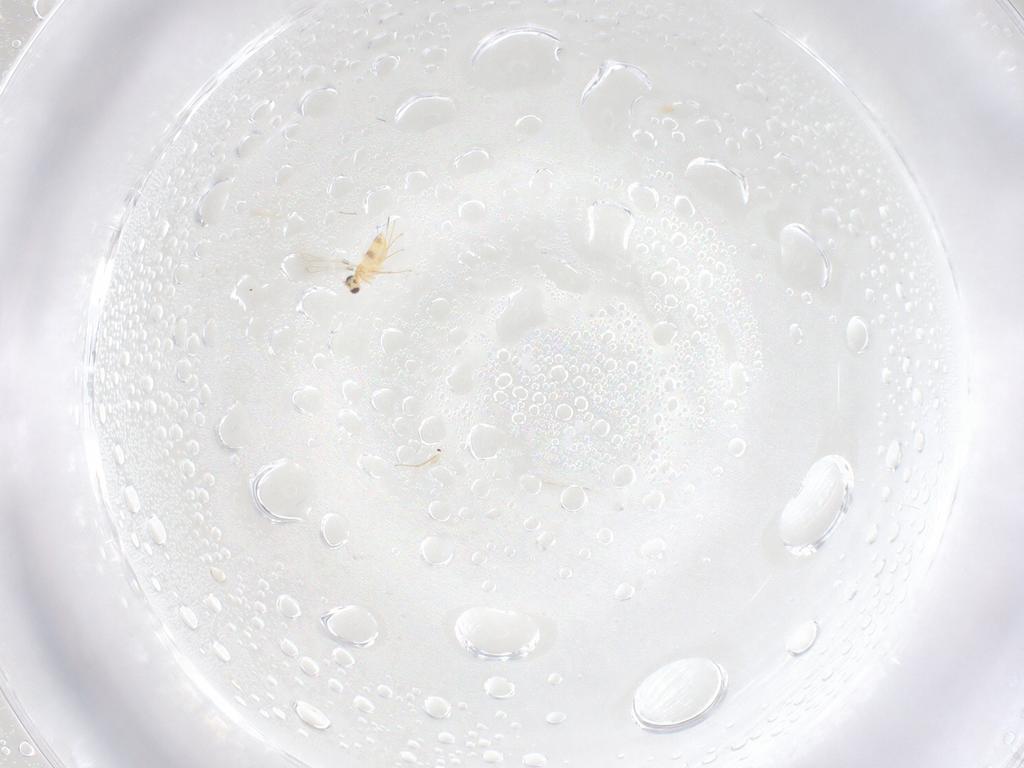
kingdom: Animalia
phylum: Arthropoda
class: Insecta
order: Hymenoptera
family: Mymaridae
